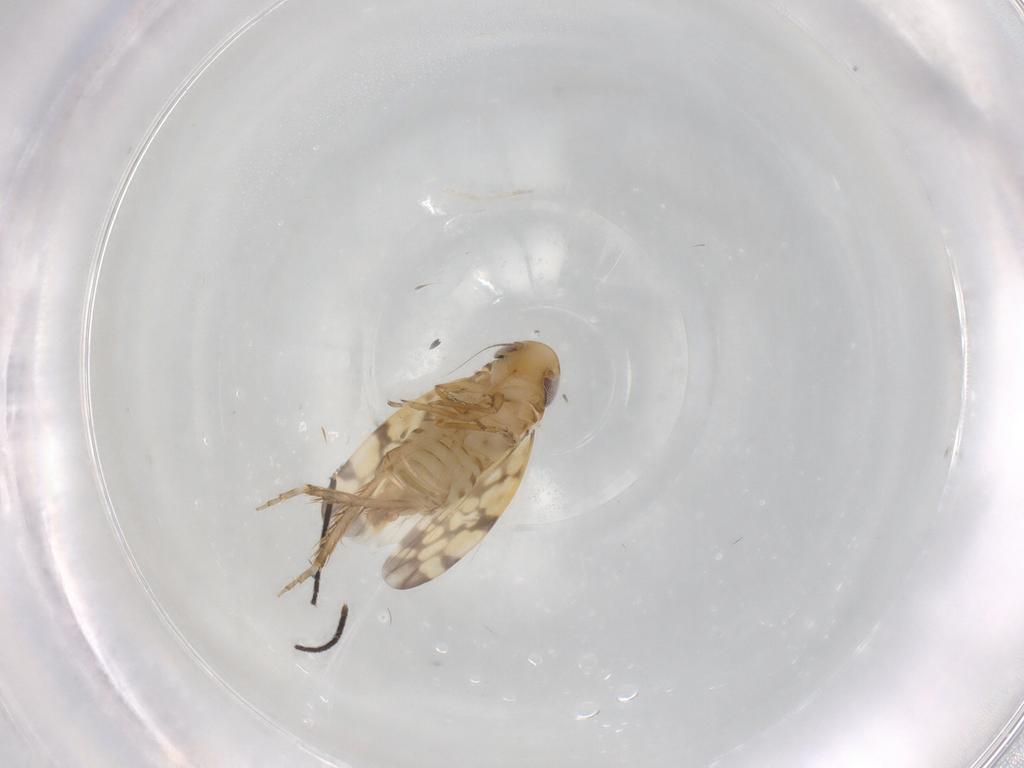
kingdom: Animalia
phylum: Arthropoda
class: Insecta
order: Hemiptera
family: Cicadellidae
